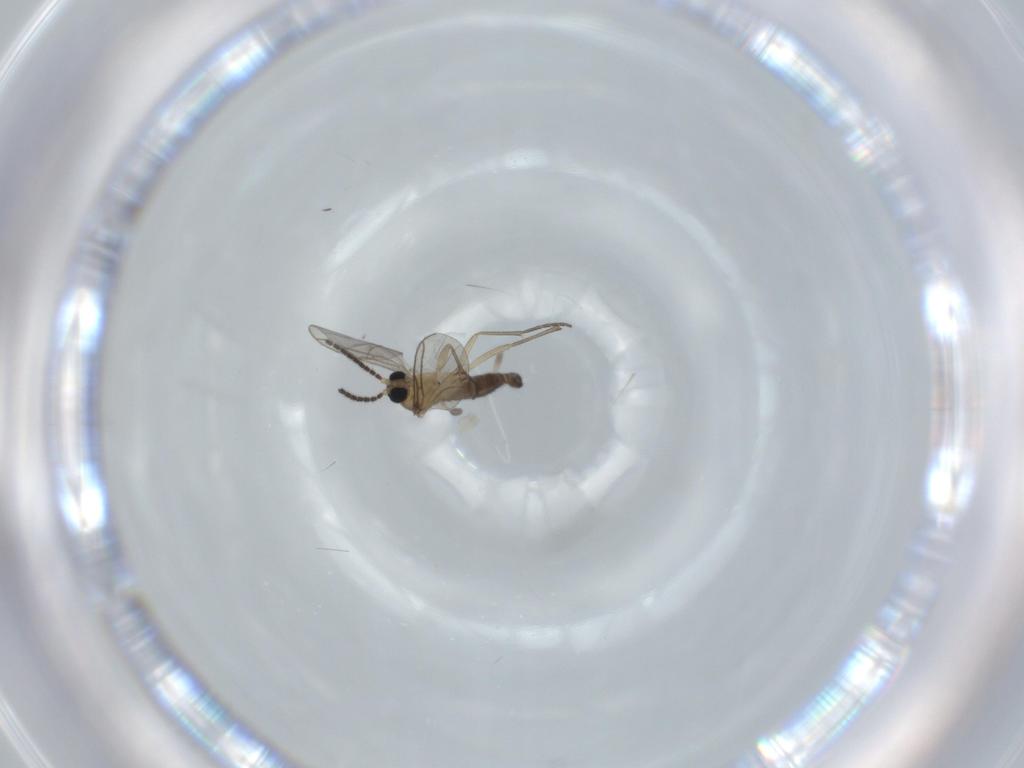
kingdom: Animalia
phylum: Arthropoda
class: Insecta
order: Diptera
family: Sciaridae
